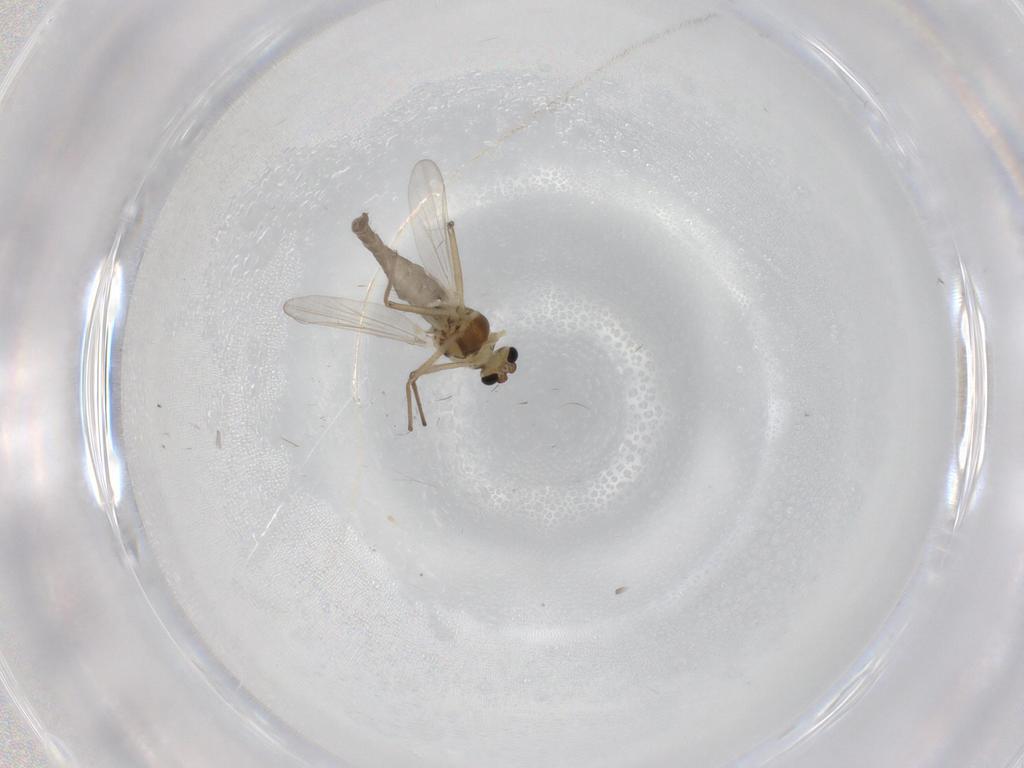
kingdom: Animalia
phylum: Arthropoda
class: Insecta
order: Diptera
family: Chironomidae
